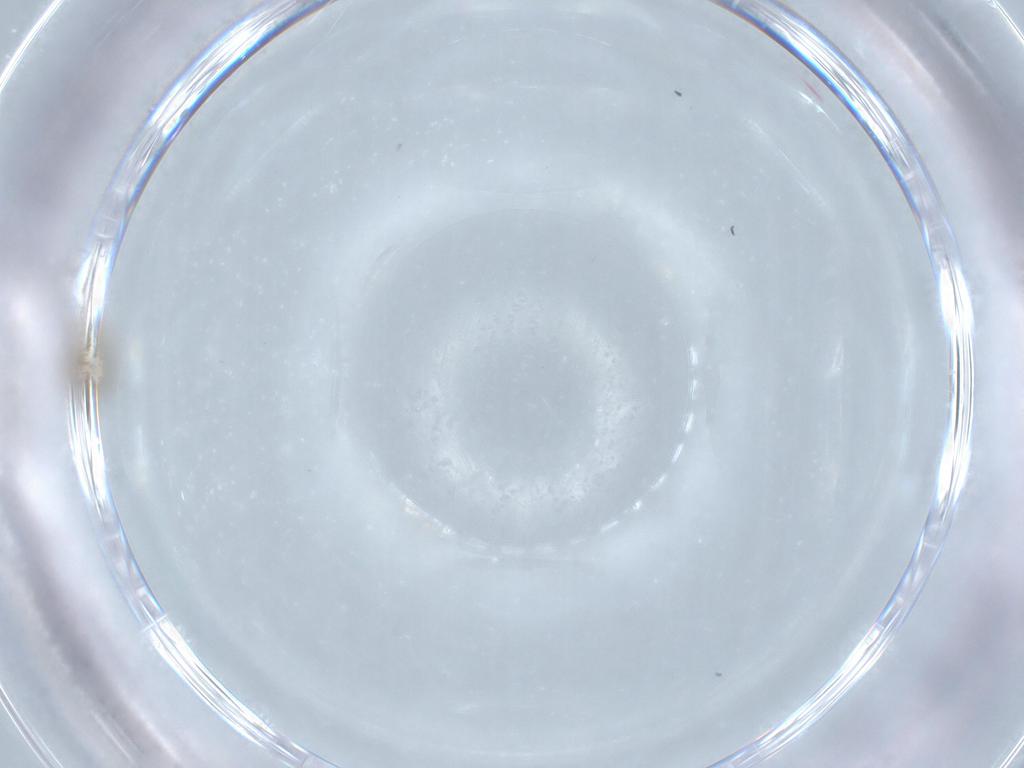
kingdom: Animalia
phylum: Arthropoda
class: Insecta
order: Diptera
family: Chironomidae
